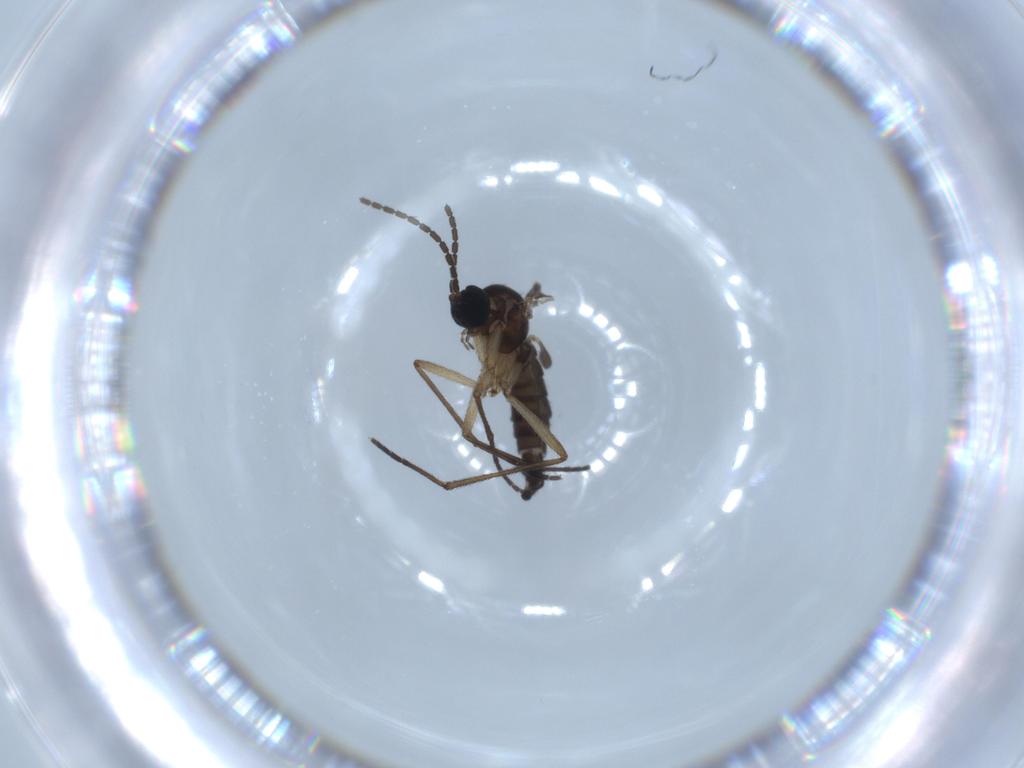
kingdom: Animalia
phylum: Arthropoda
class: Insecta
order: Diptera
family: Sciaridae
